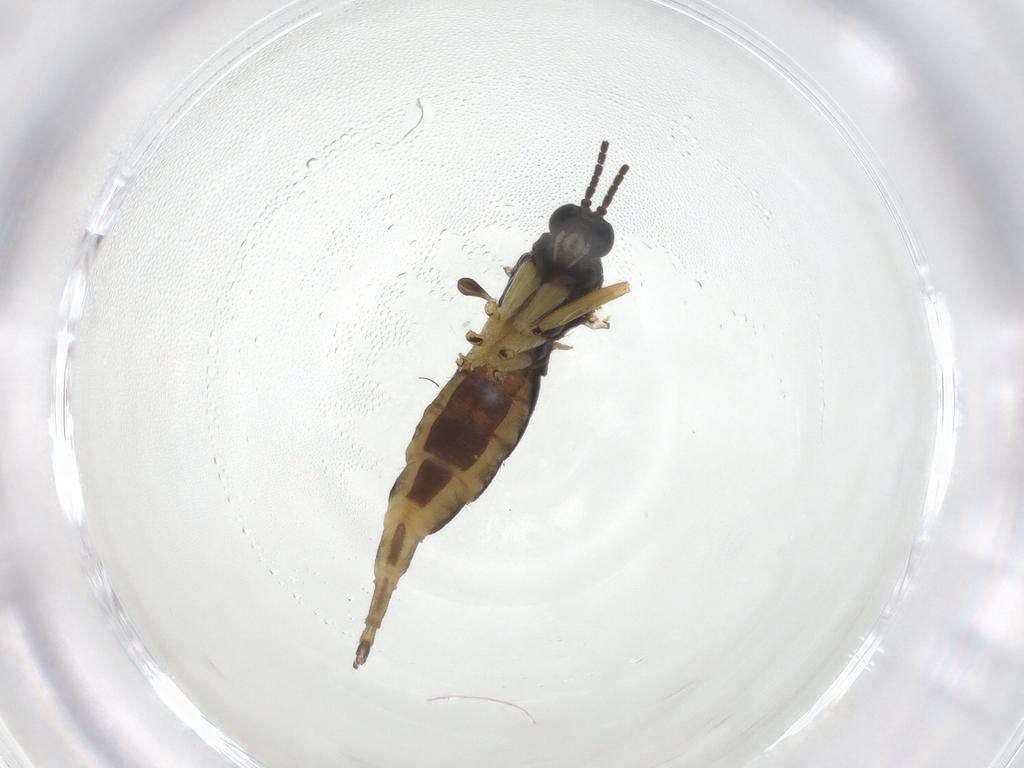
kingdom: Animalia
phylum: Arthropoda
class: Insecta
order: Diptera
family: Sciaridae
